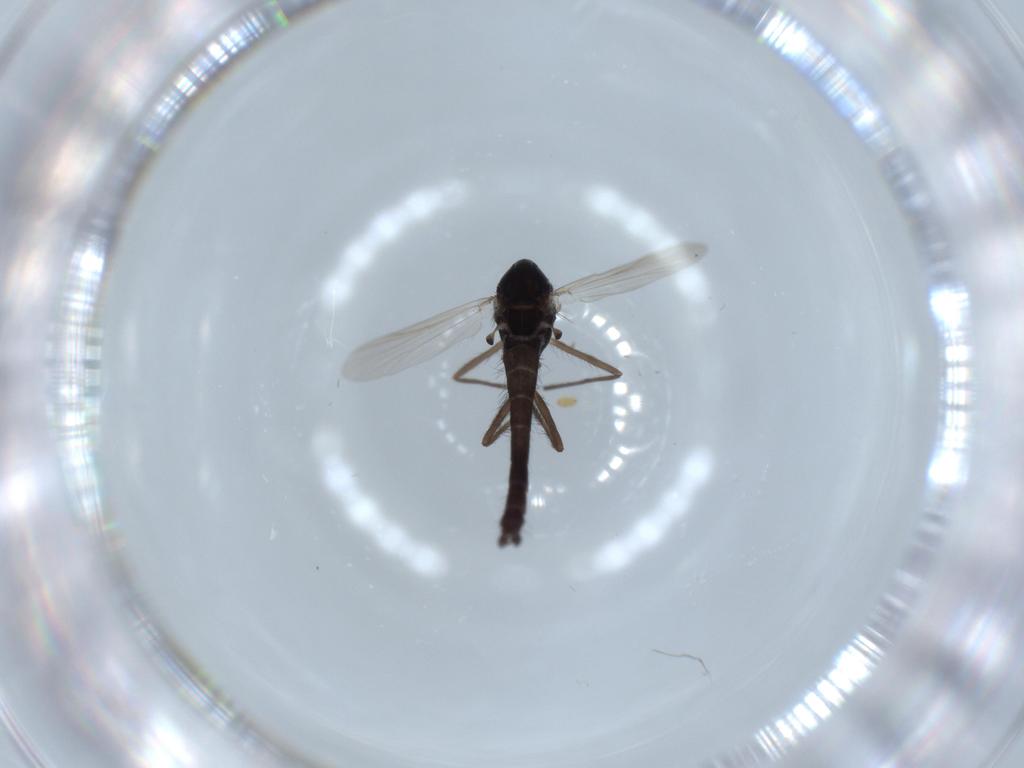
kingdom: Animalia
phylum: Arthropoda
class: Insecta
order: Diptera
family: Chironomidae
